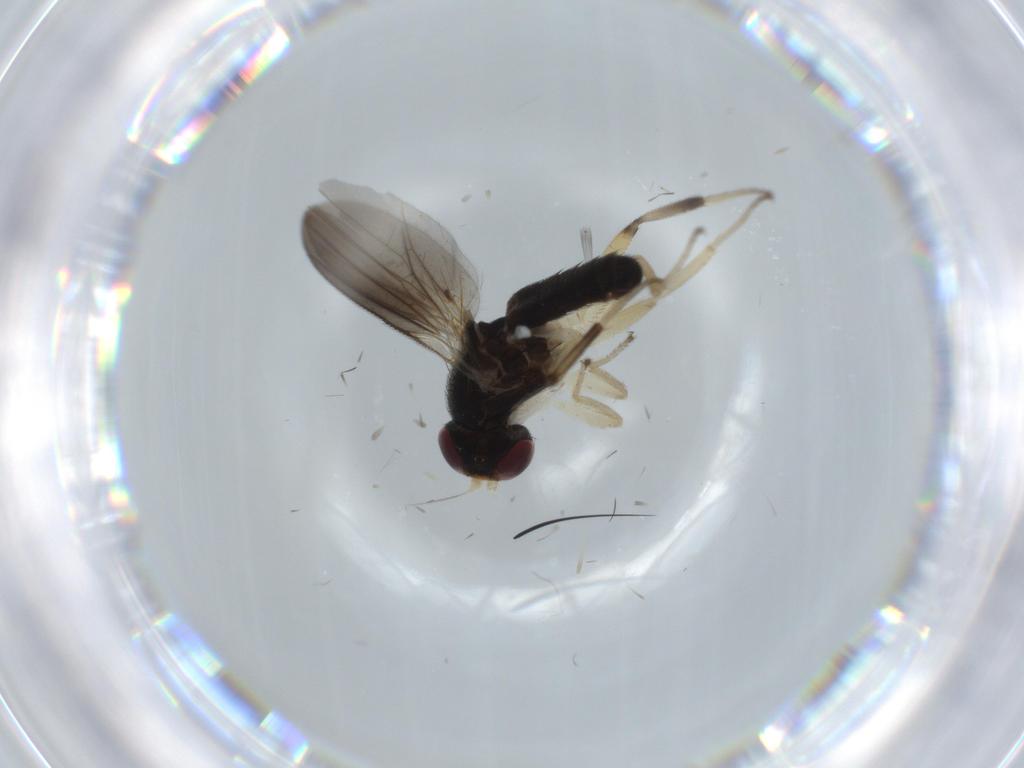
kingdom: Animalia
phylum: Arthropoda
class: Insecta
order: Diptera
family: Clusiidae
